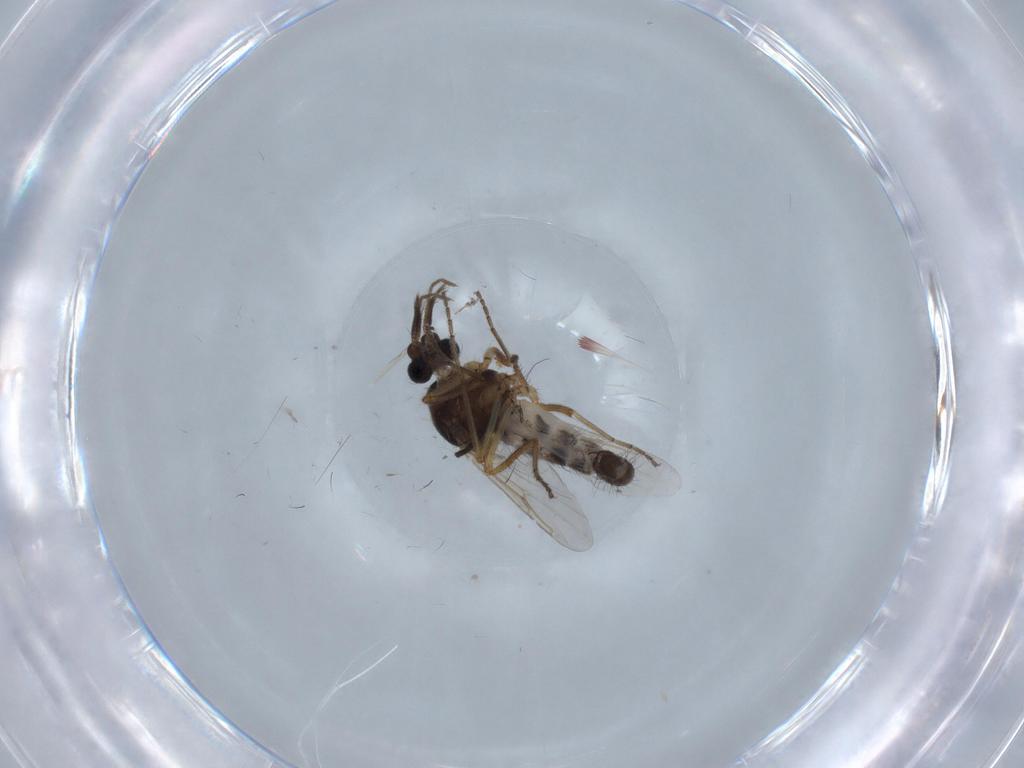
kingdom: Animalia
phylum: Arthropoda
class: Insecta
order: Diptera
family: Ceratopogonidae
